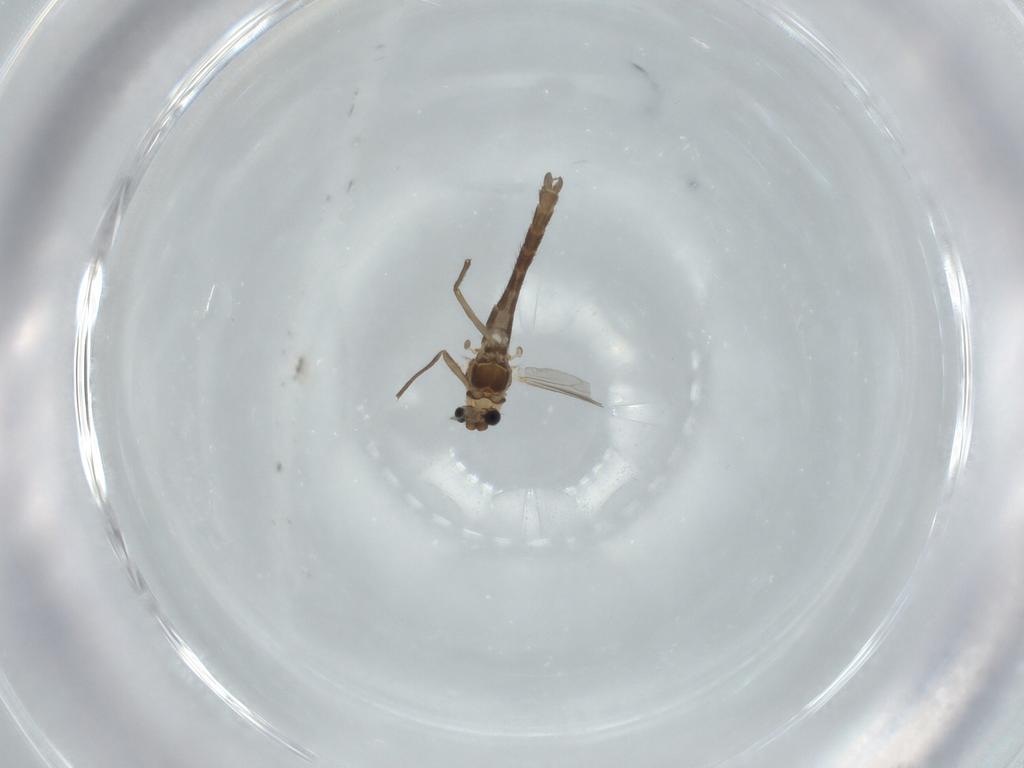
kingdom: Animalia
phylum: Arthropoda
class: Insecta
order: Diptera
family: Chironomidae
